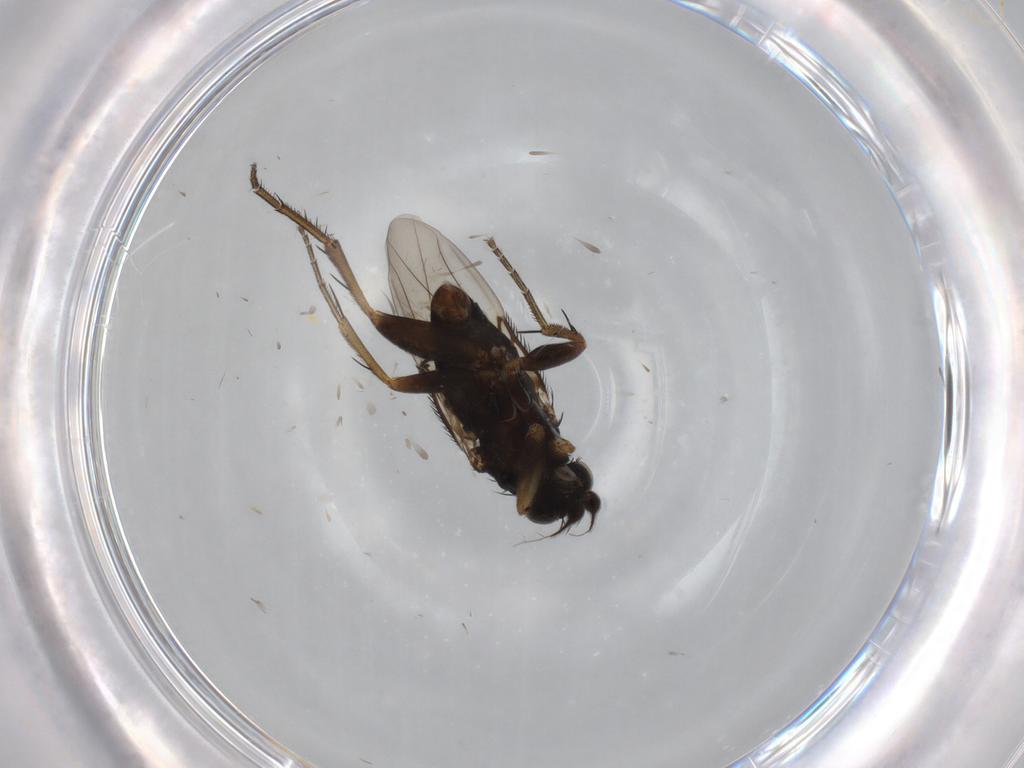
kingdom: Animalia
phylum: Arthropoda
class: Insecta
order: Diptera
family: Phoridae
